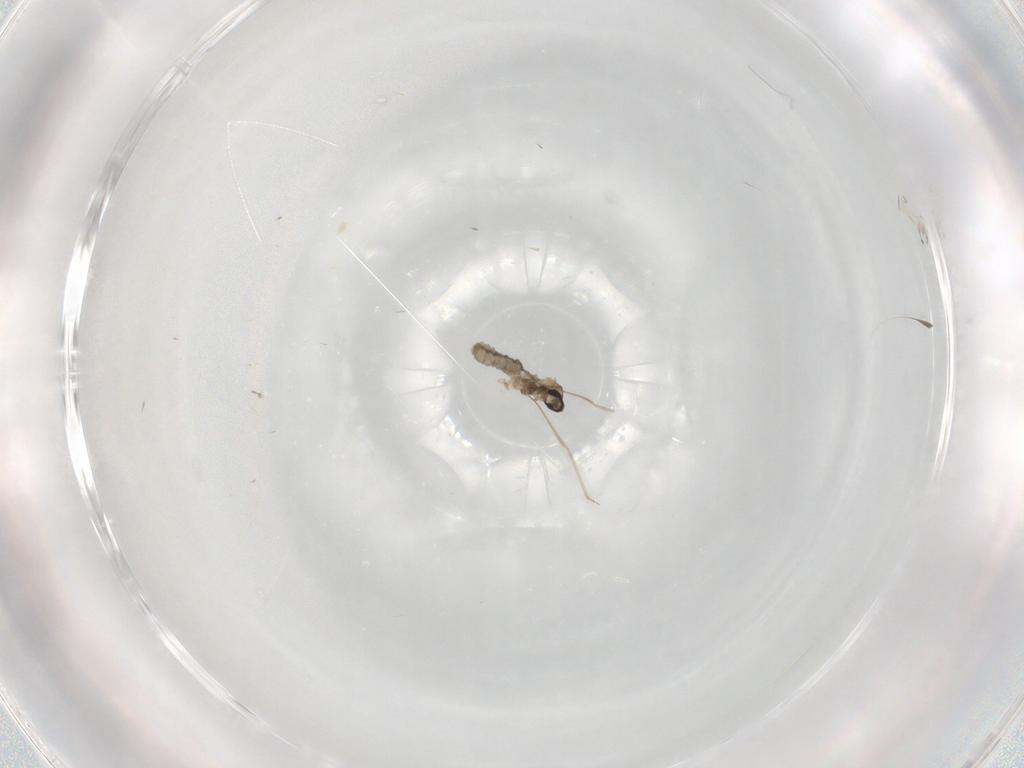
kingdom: Animalia
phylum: Arthropoda
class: Insecta
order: Diptera
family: Cecidomyiidae
